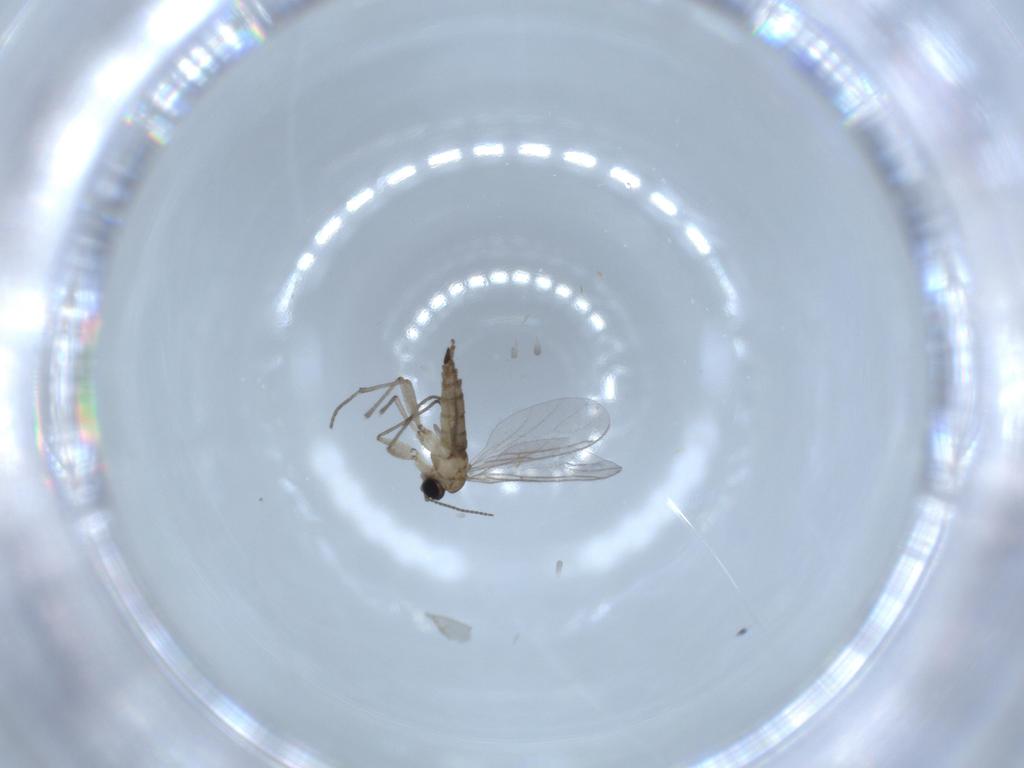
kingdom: Animalia
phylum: Arthropoda
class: Insecta
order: Diptera
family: Sciaridae
